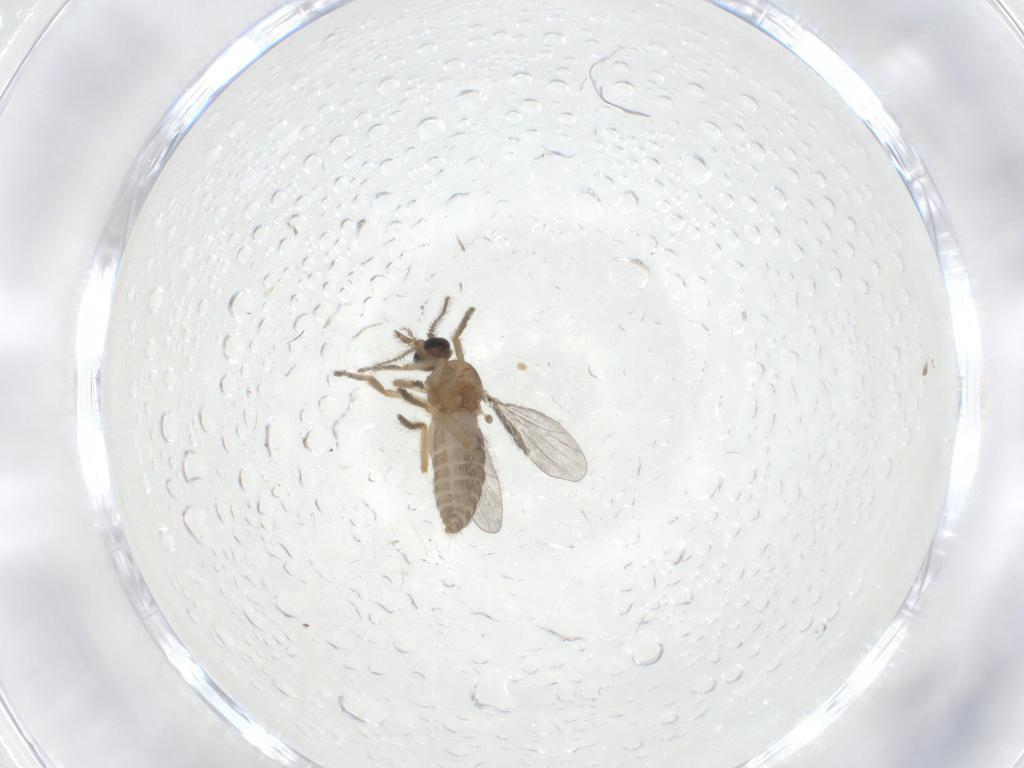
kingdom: Animalia
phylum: Arthropoda
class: Insecta
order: Diptera
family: Ceratopogonidae
